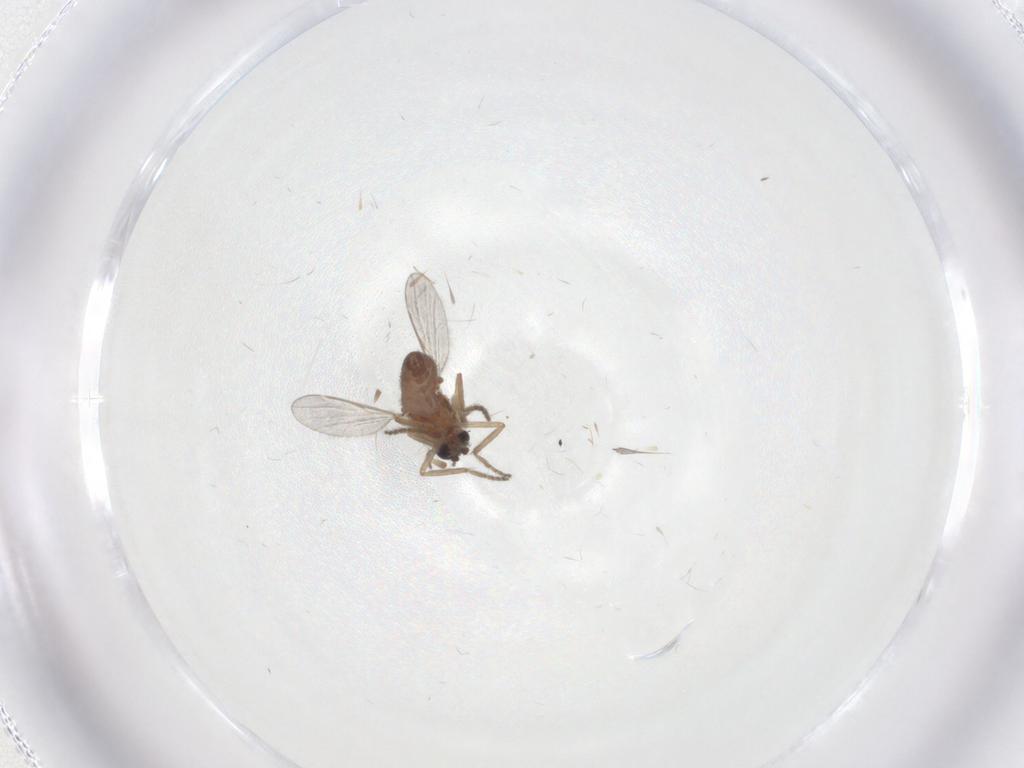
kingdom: Animalia
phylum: Arthropoda
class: Insecta
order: Diptera
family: Ceratopogonidae
